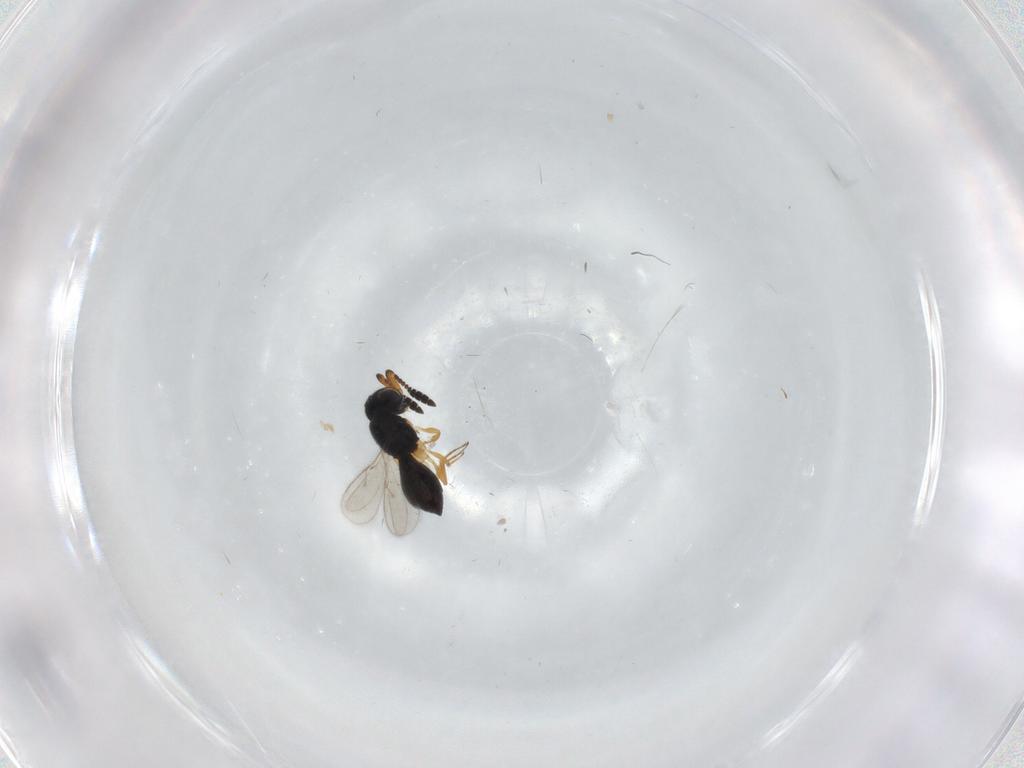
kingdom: Animalia
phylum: Arthropoda
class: Insecta
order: Hymenoptera
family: Scelionidae
